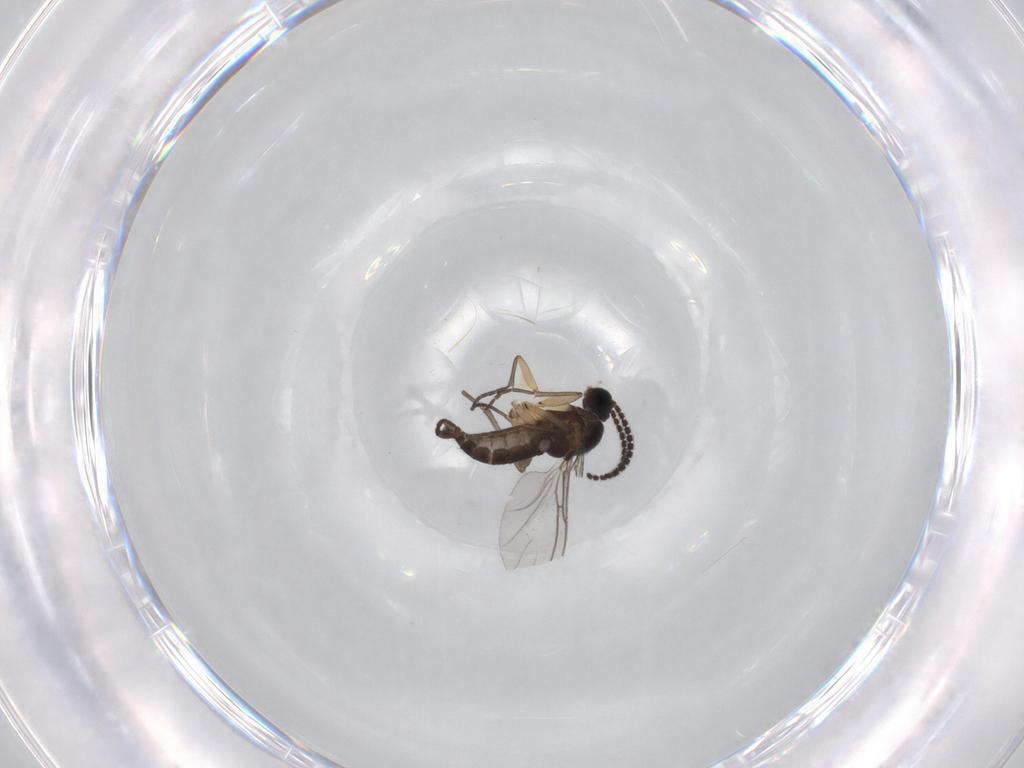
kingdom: Animalia
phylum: Arthropoda
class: Insecta
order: Diptera
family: Sciaridae
